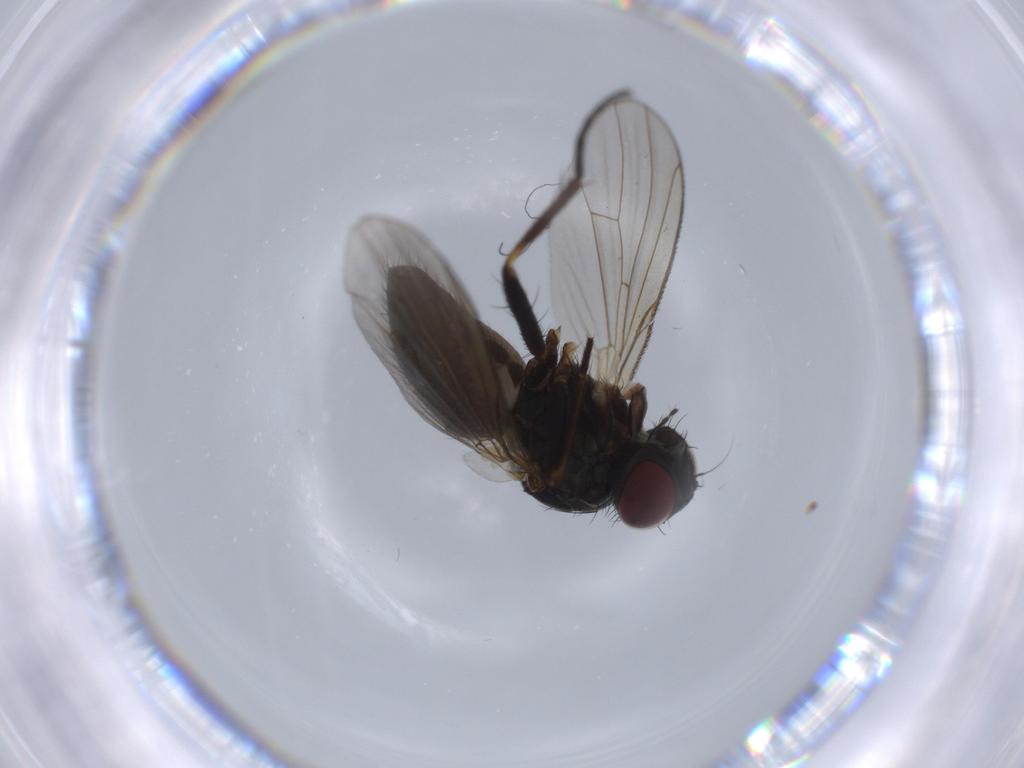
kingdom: Animalia
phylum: Arthropoda
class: Insecta
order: Diptera
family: Muscidae
